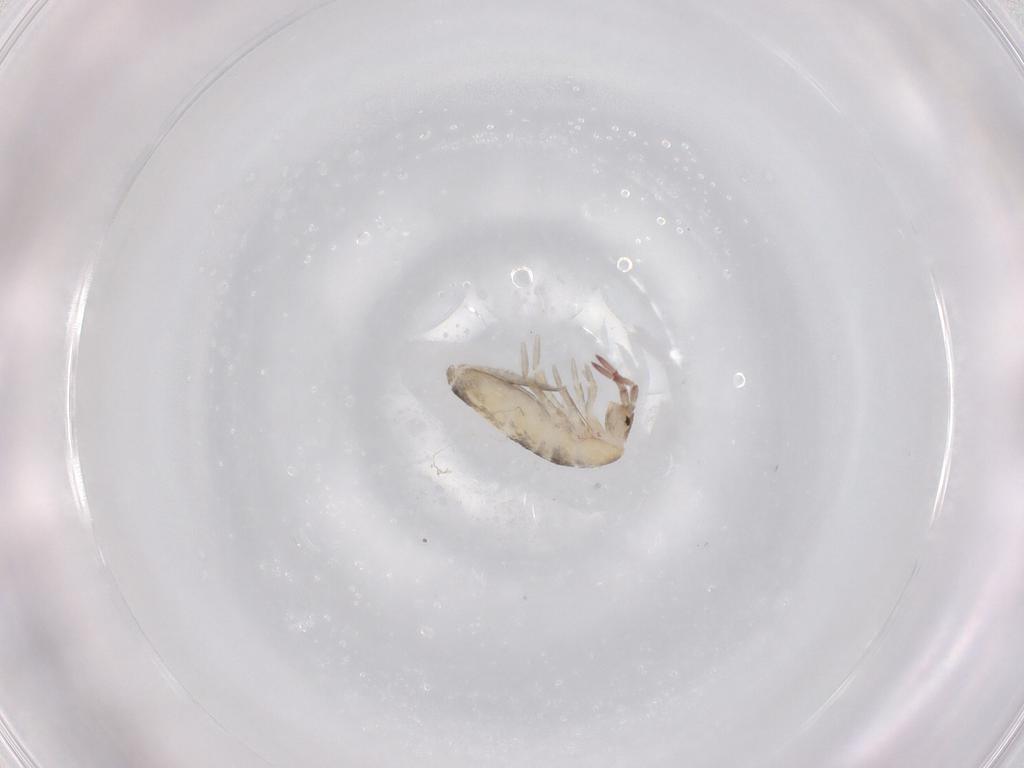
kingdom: Animalia
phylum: Arthropoda
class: Collembola
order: Entomobryomorpha
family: Entomobryidae
